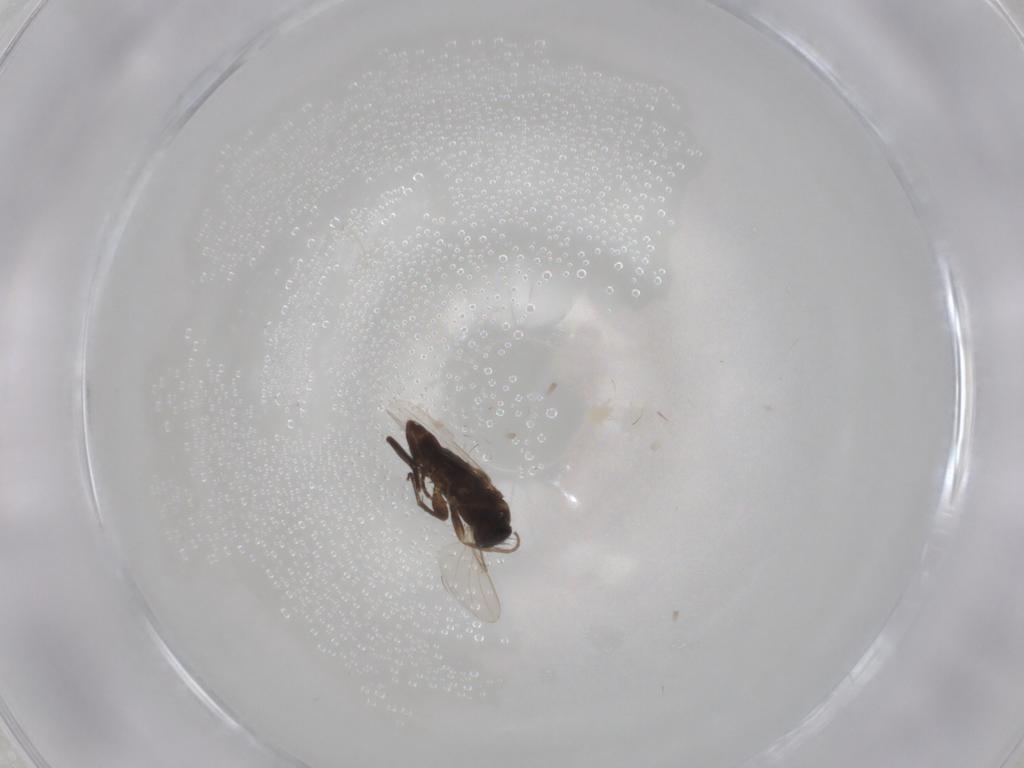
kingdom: Animalia
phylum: Arthropoda
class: Insecta
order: Diptera
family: Phoridae
